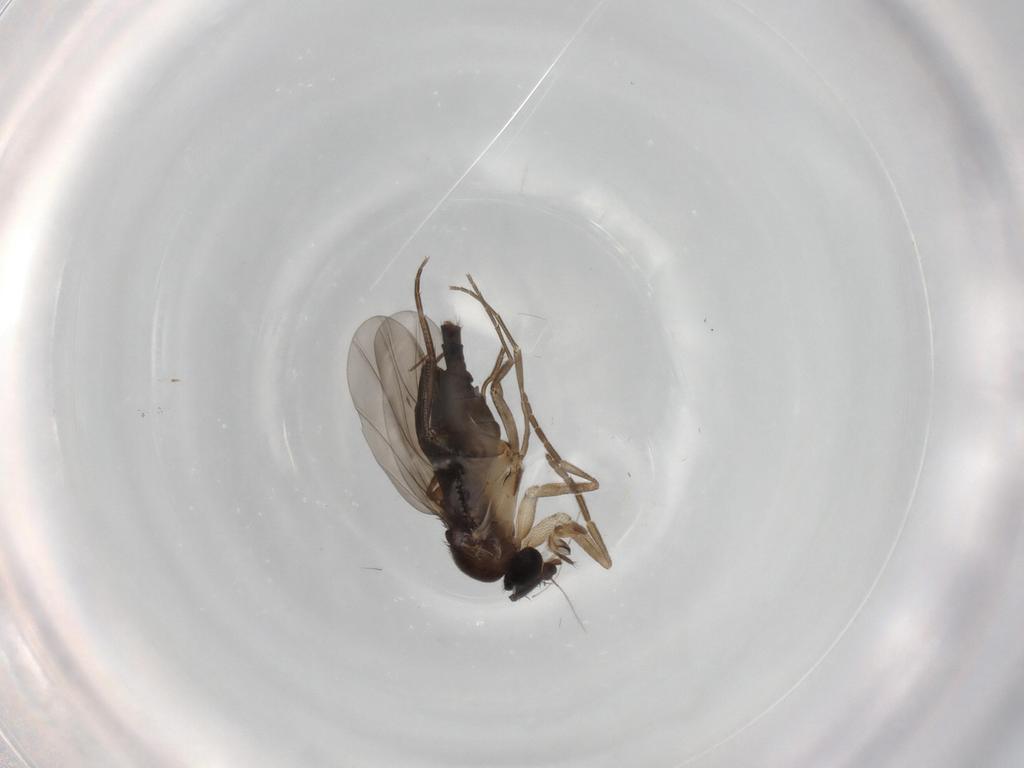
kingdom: Animalia
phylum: Arthropoda
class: Insecta
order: Diptera
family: Phoridae
